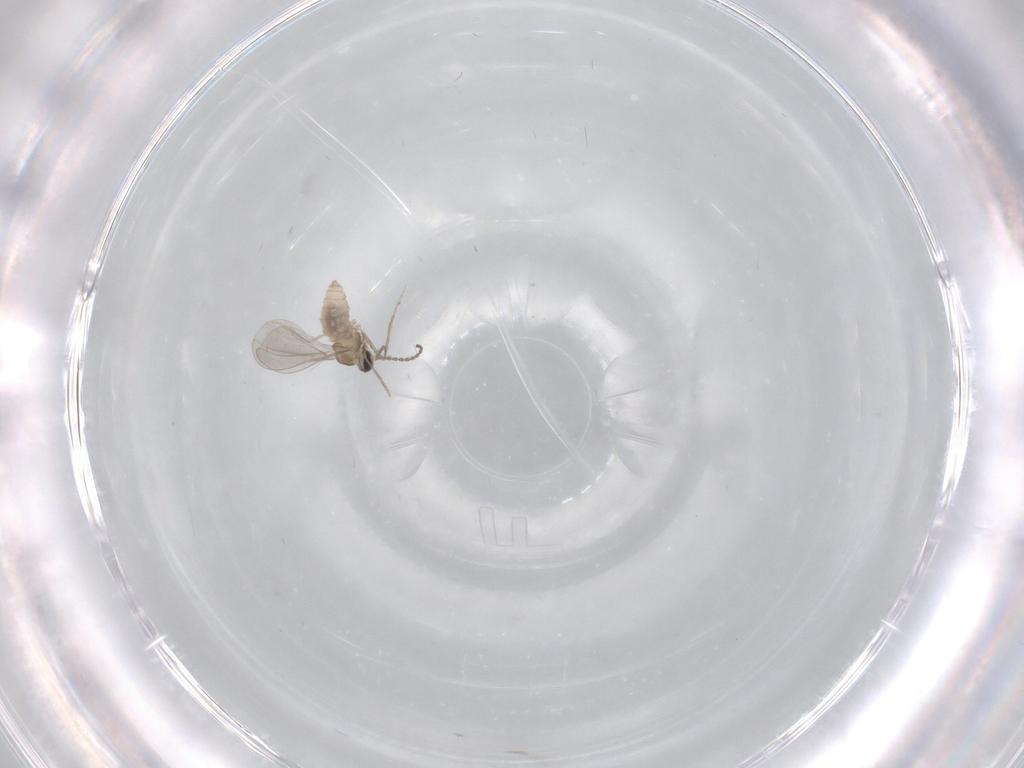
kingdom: Animalia
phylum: Arthropoda
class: Insecta
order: Diptera
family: Cecidomyiidae
